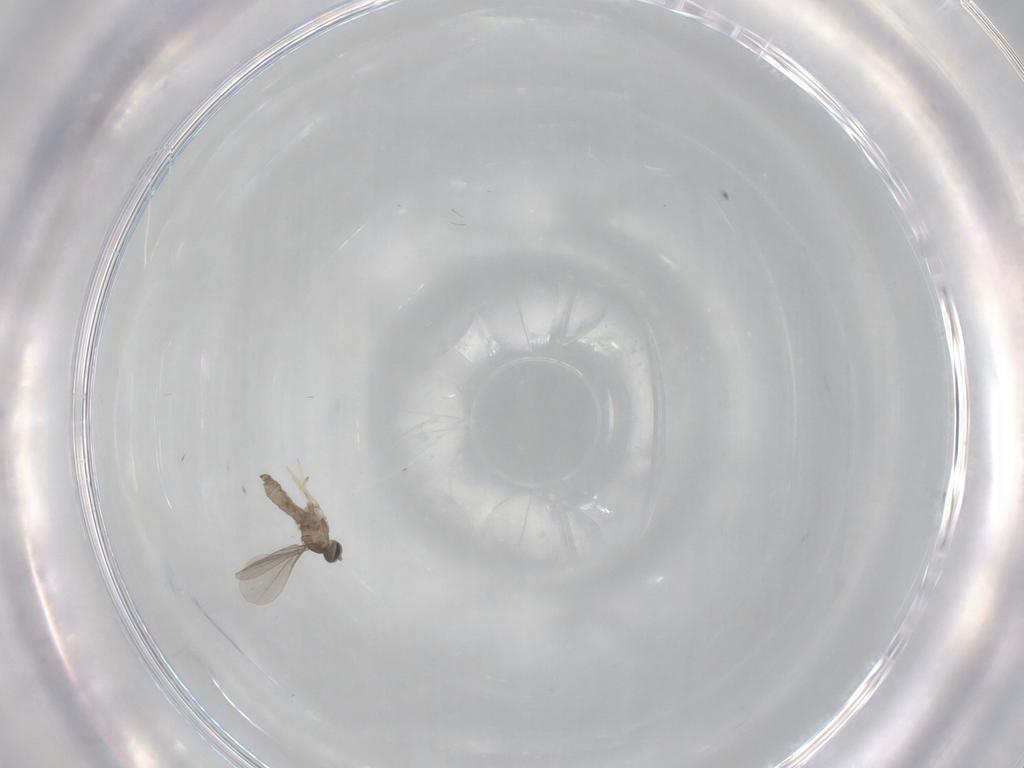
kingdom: Animalia
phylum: Arthropoda
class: Insecta
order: Diptera
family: Cecidomyiidae
